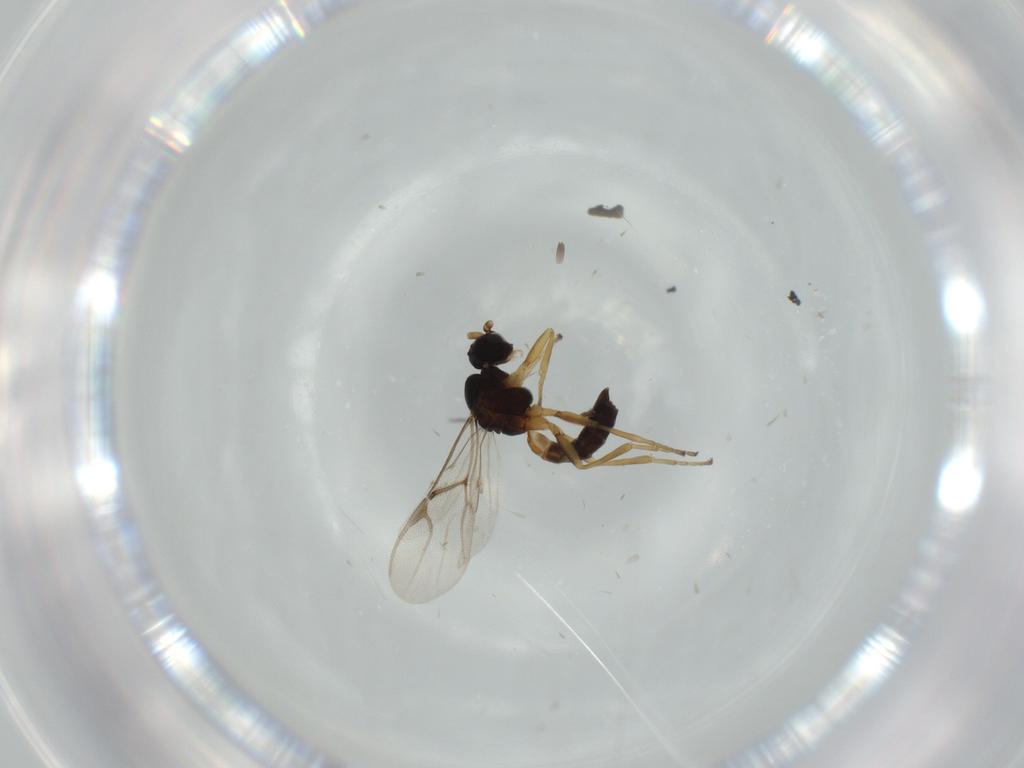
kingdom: Animalia
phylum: Arthropoda
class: Insecta
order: Hymenoptera
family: Braconidae
